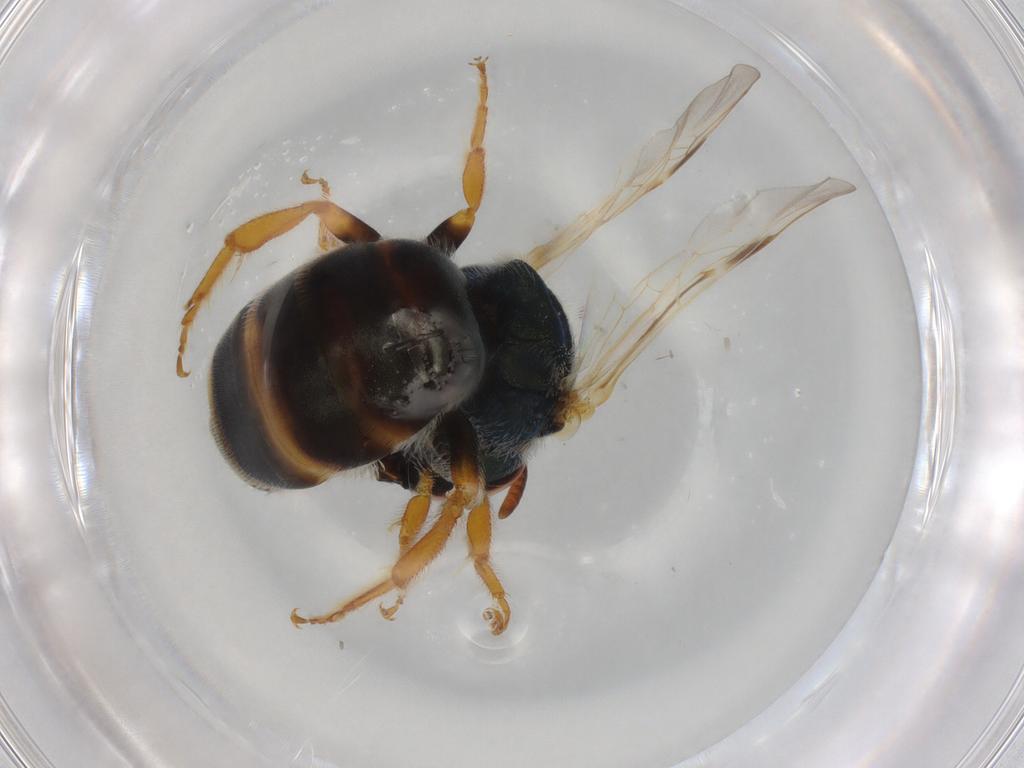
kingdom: Animalia
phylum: Arthropoda
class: Insecta
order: Hymenoptera
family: Halictidae
